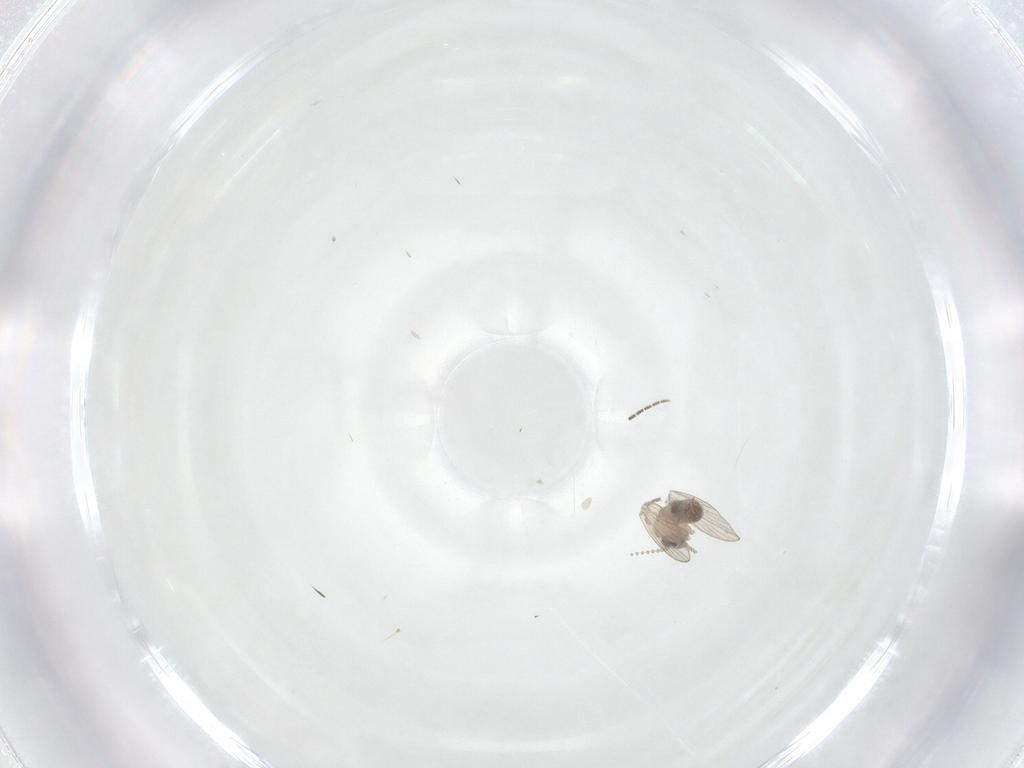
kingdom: Animalia
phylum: Arthropoda
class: Insecta
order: Diptera
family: Sciaridae
